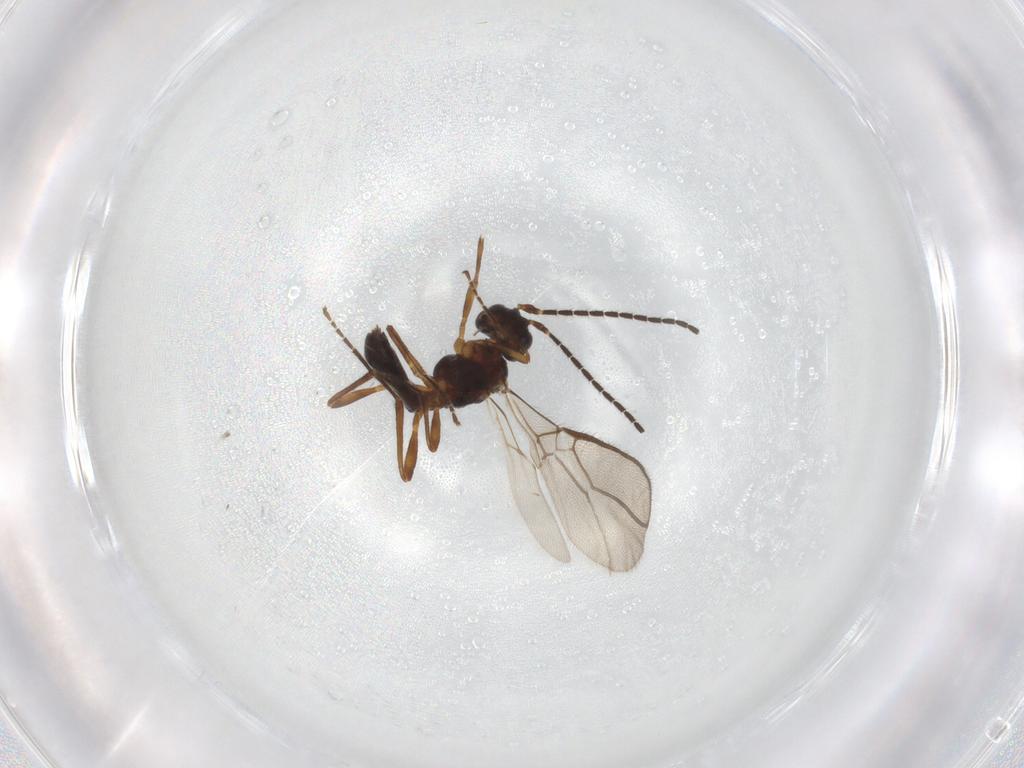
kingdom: Animalia
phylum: Arthropoda
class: Insecta
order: Hymenoptera
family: Braconidae
